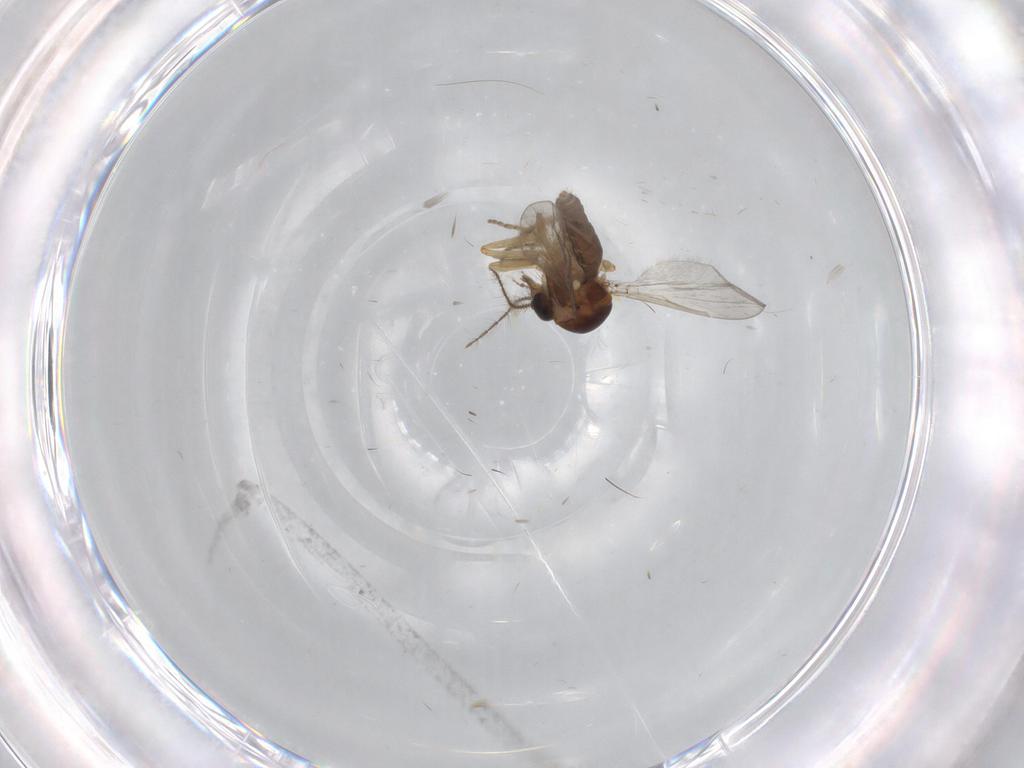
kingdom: Animalia
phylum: Arthropoda
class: Insecta
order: Diptera
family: Ceratopogonidae
